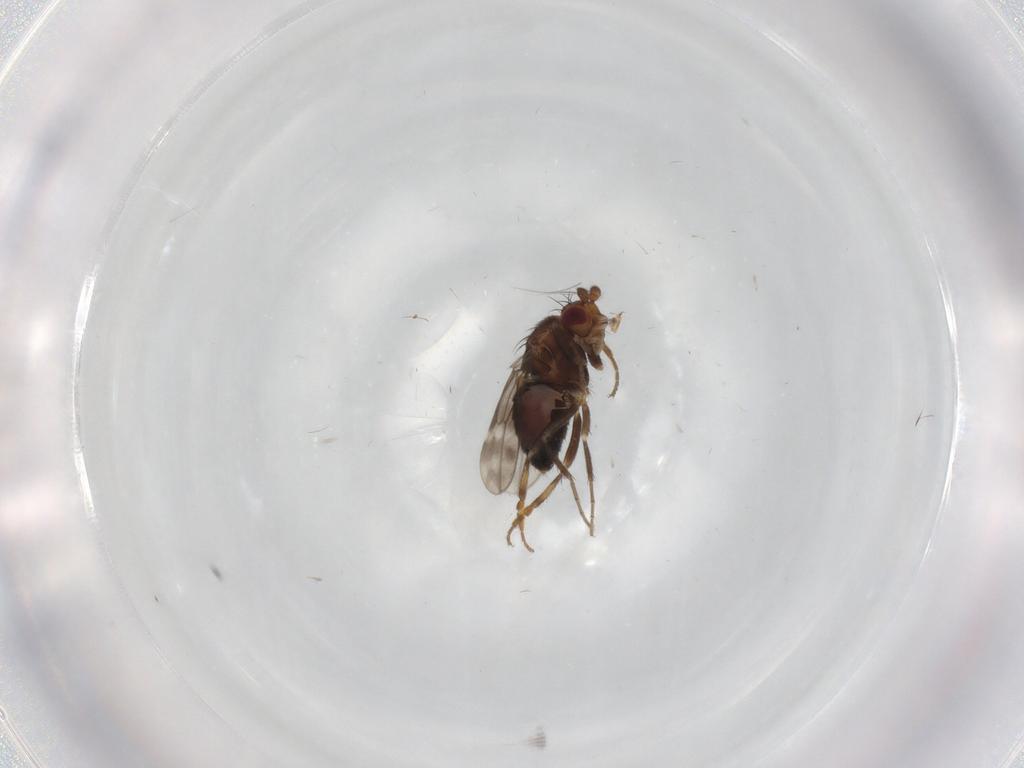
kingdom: Animalia
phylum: Arthropoda
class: Insecta
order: Diptera
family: Sphaeroceridae
